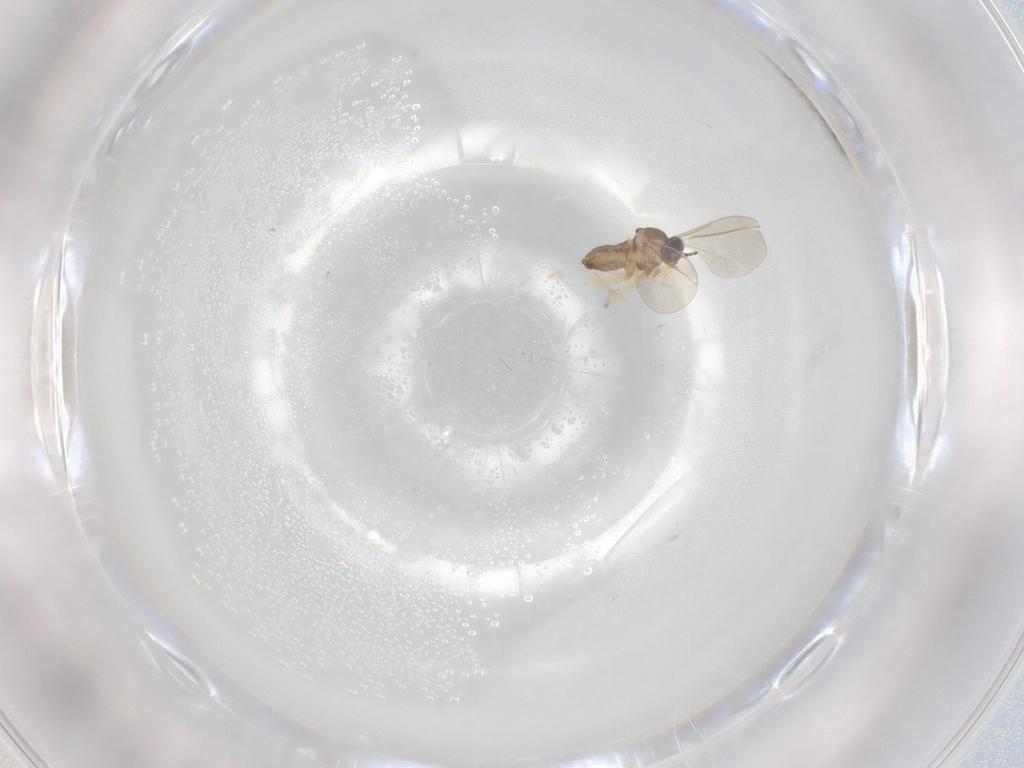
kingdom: Animalia
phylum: Arthropoda
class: Insecta
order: Diptera
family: Cecidomyiidae
